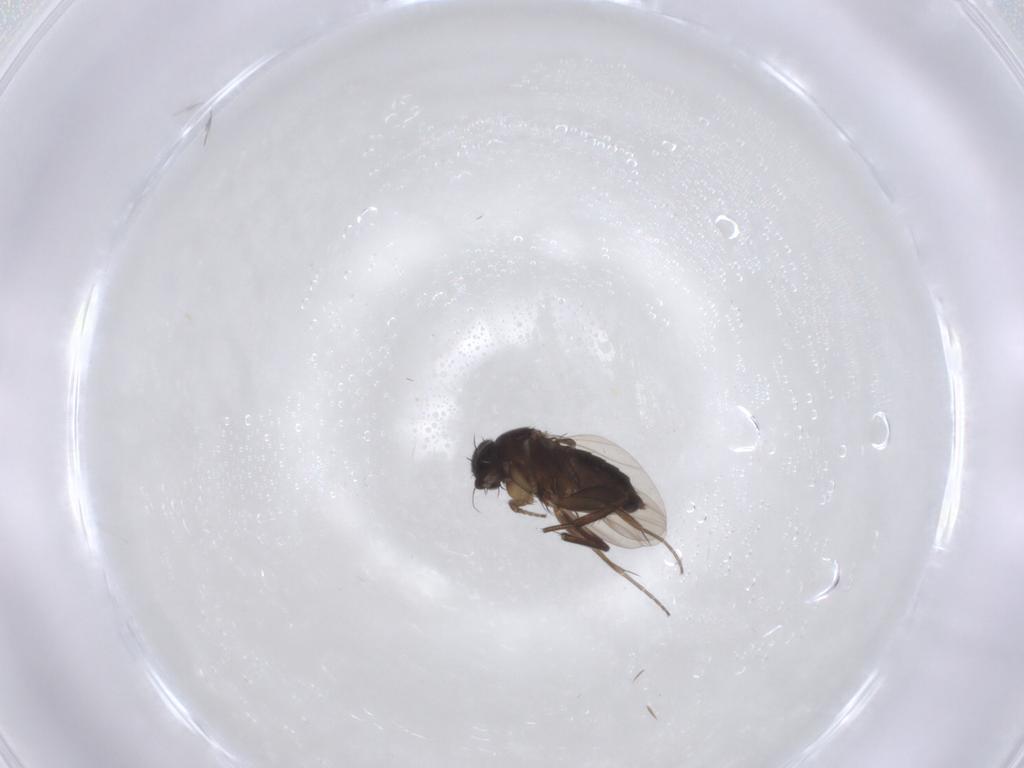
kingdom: Animalia
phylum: Arthropoda
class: Insecta
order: Diptera
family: Phoridae
